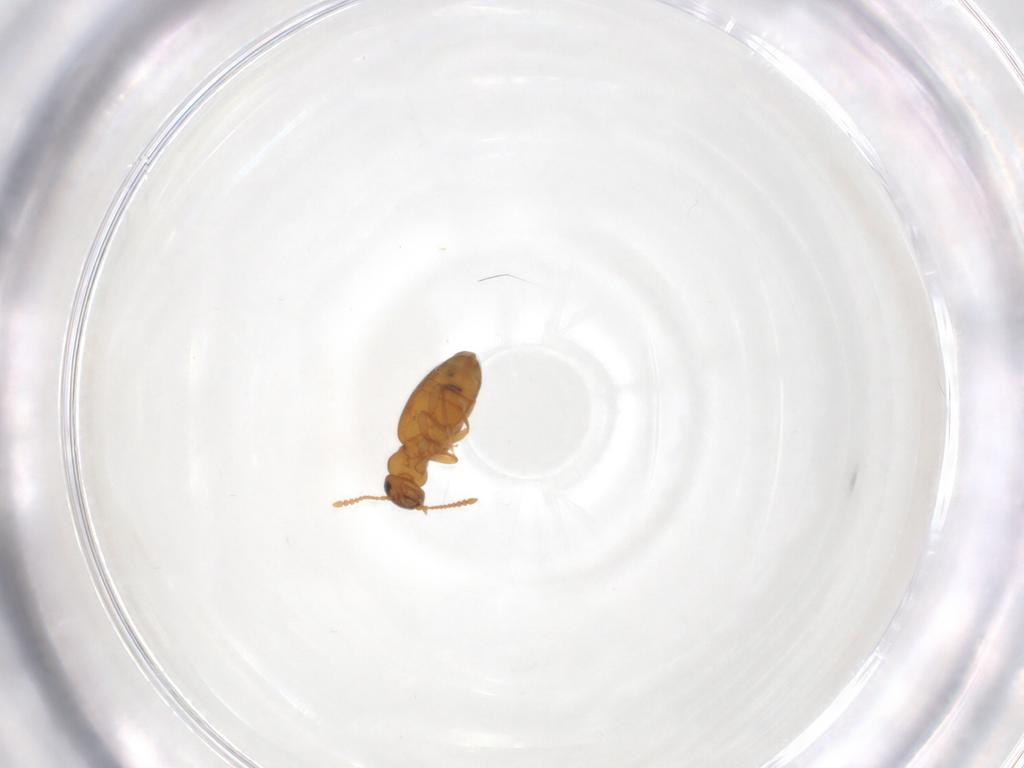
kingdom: Animalia
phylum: Arthropoda
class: Insecta
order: Coleoptera
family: Anthicidae
